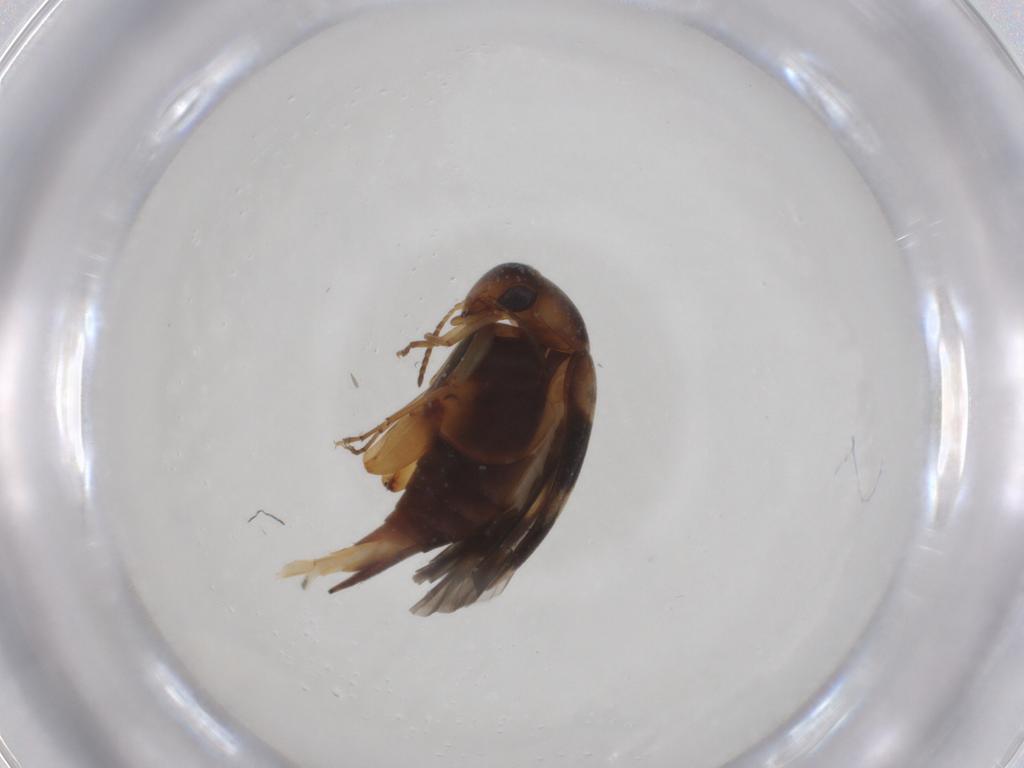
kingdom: Animalia
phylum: Arthropoda
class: Insecta
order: Coleoptera
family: Mordellidae
